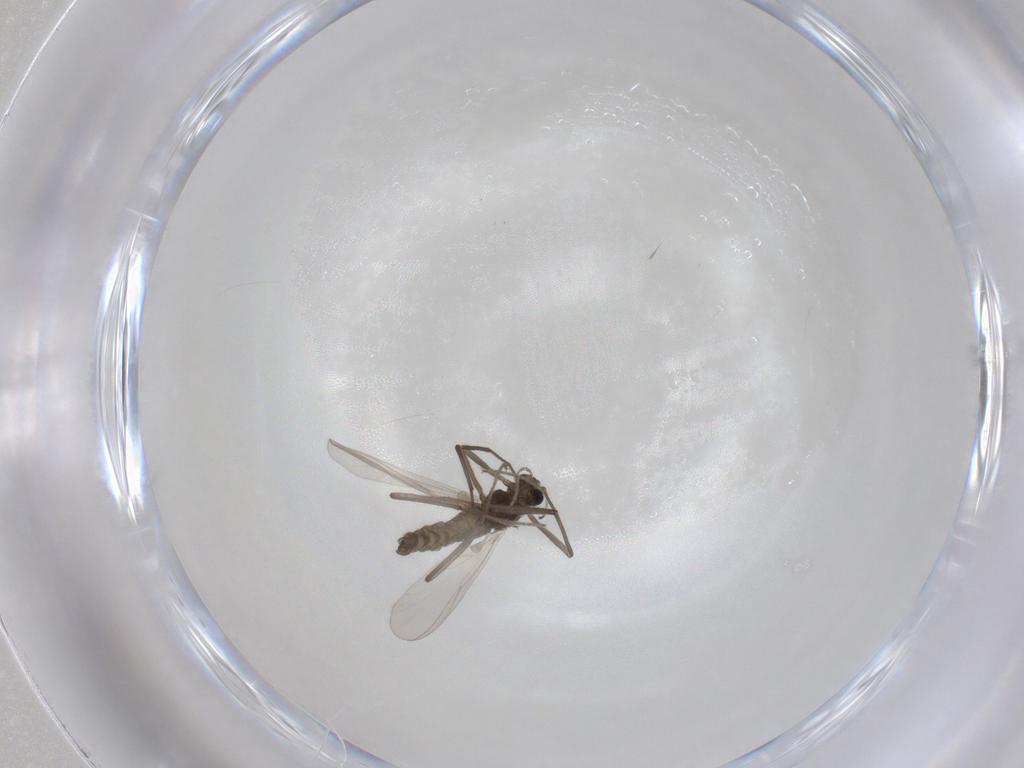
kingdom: Animalia
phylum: Arthropoda
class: Insecta
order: Diptera
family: Chironomidae
